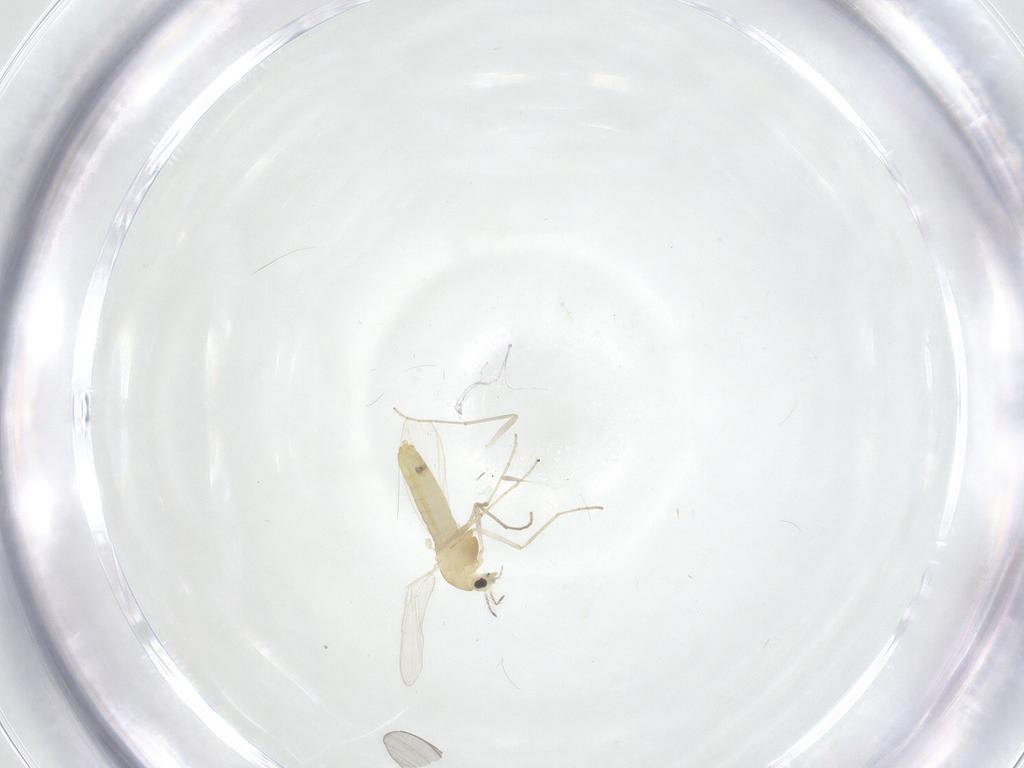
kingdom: Animalia
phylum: Arthropoda
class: Insecta
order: Diptera
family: Chironomidae
